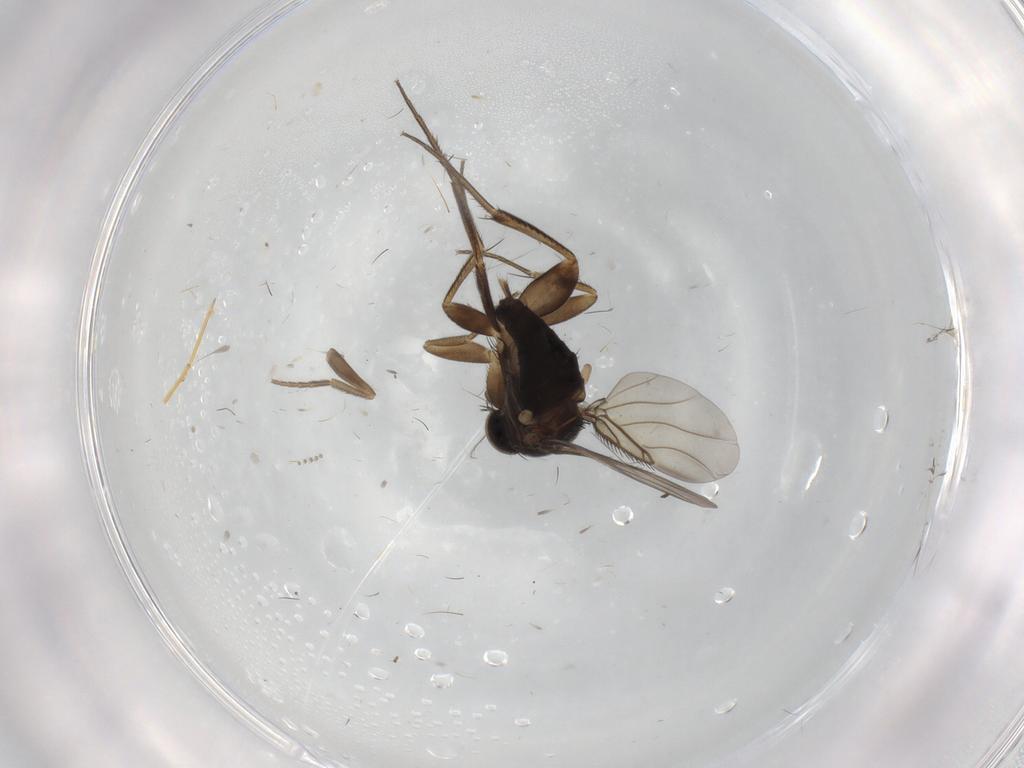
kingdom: Animalia
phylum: Arthropoda
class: Insecta
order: Diptera
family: Phoridae
